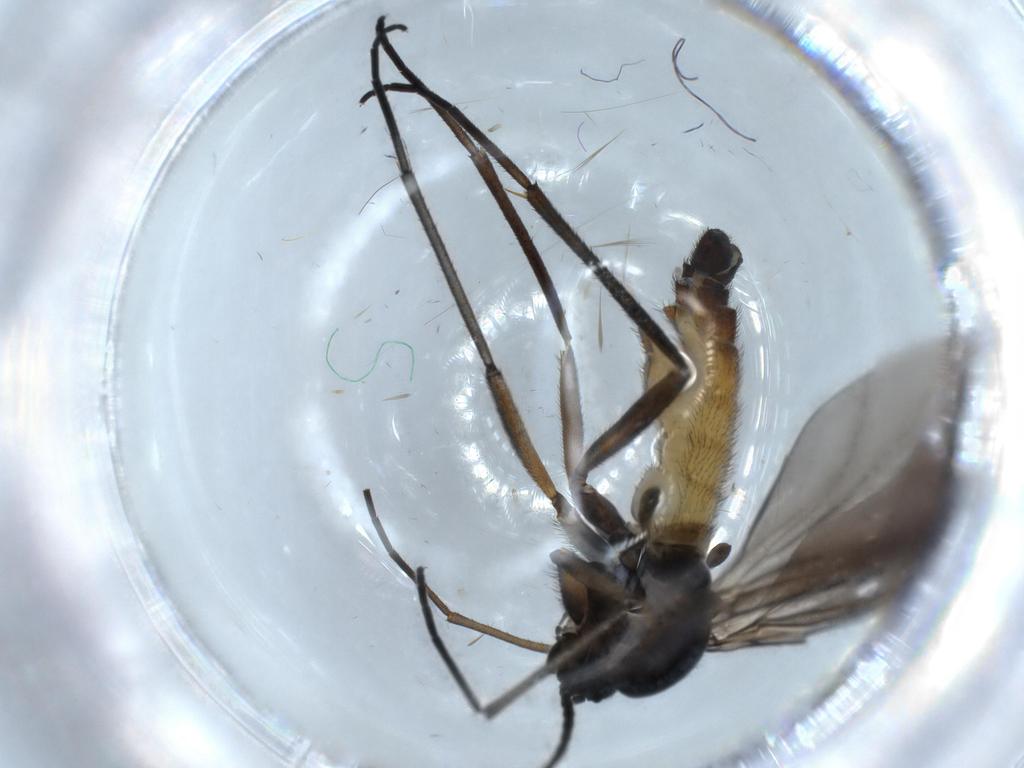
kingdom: Animalia
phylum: Arthropoda
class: Insecta
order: Diptera
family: Sciaridae
